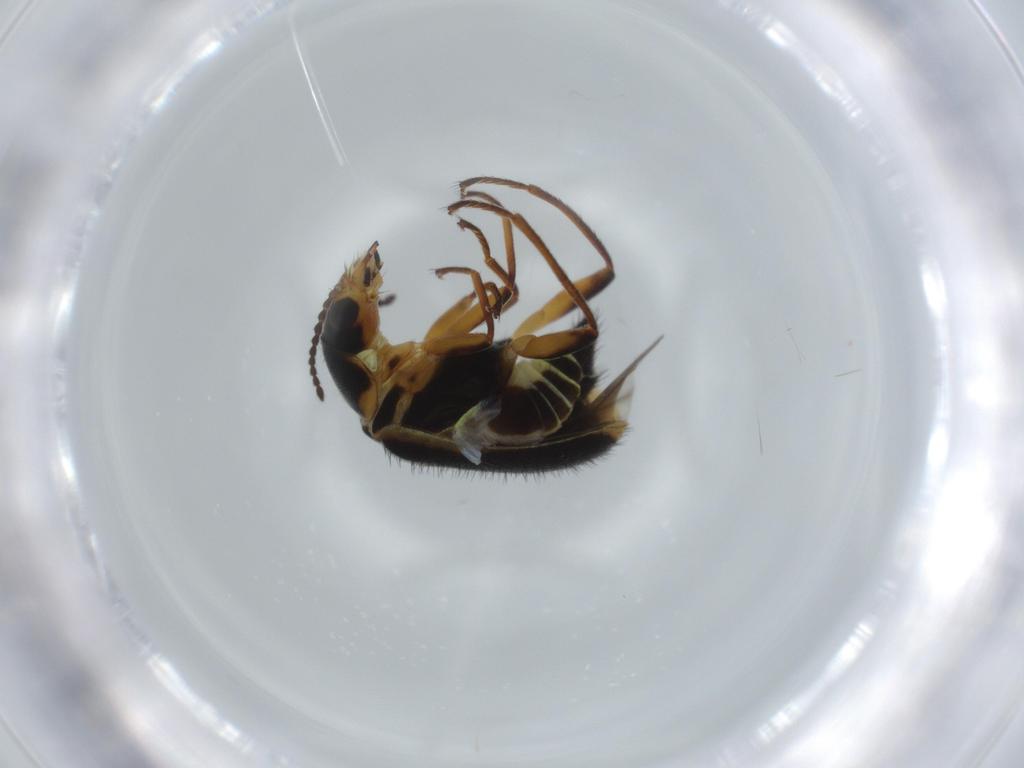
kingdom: Animalia
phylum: Arthropoda
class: Insecta
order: Coleoptera
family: Melyridae
